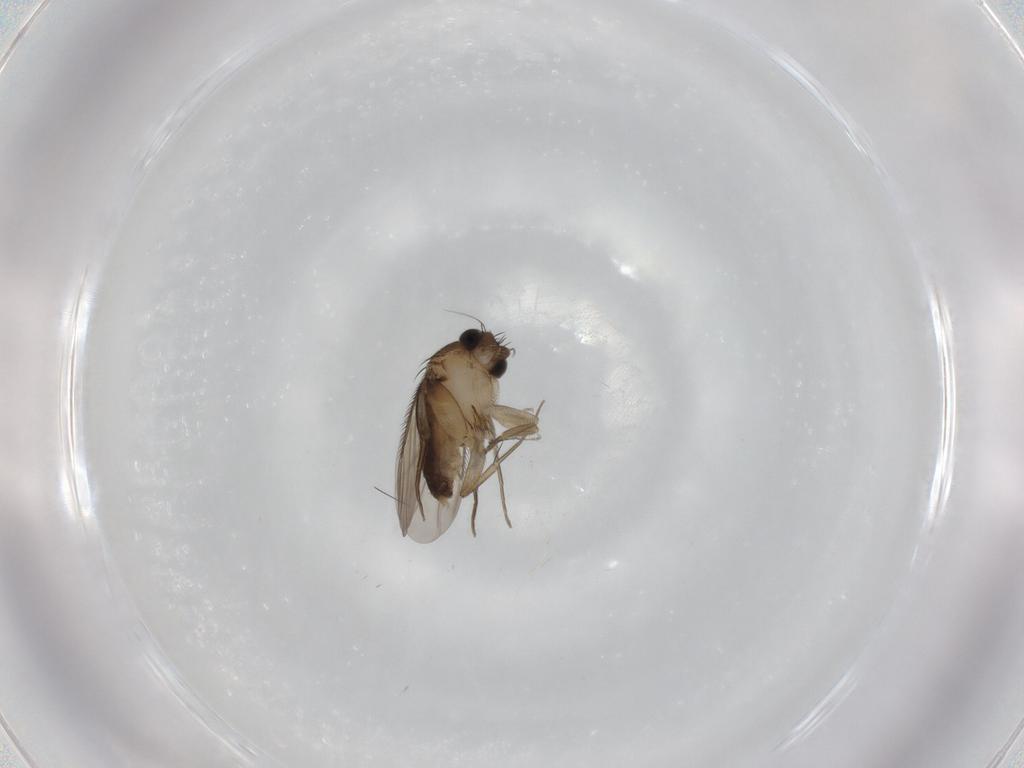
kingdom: Animalia
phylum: Arthropoda
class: Insecta
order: Diptera
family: Phoridae
